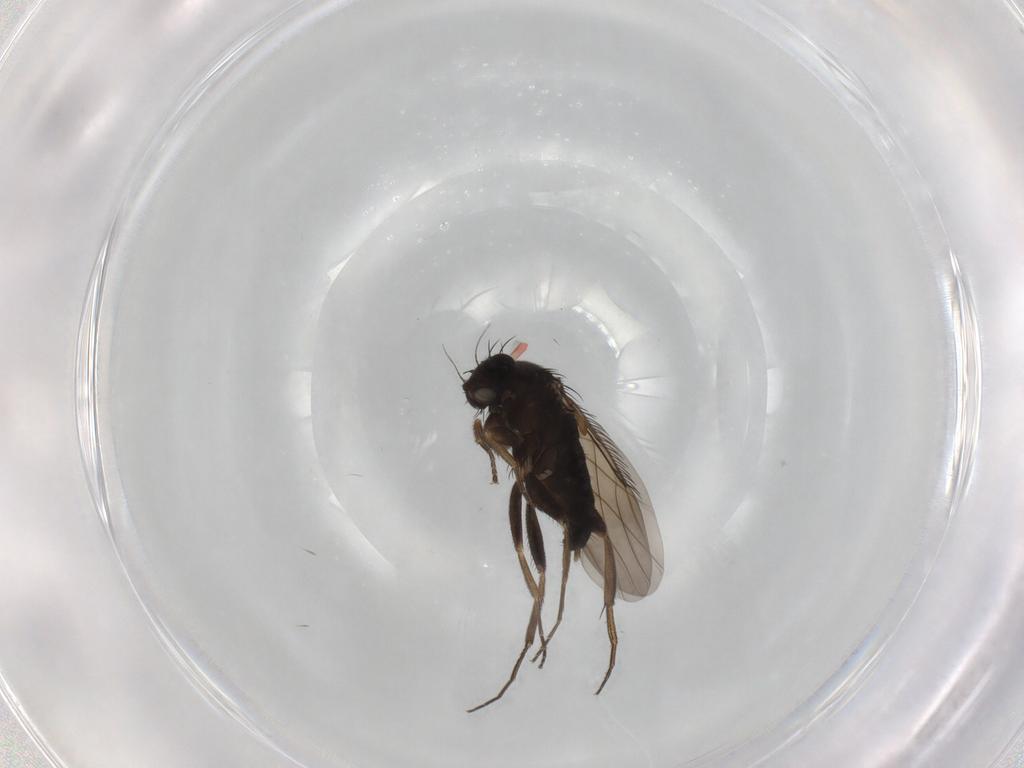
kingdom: Animalia
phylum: Arthropoda
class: Insecta
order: Diptera
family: Phoridae
